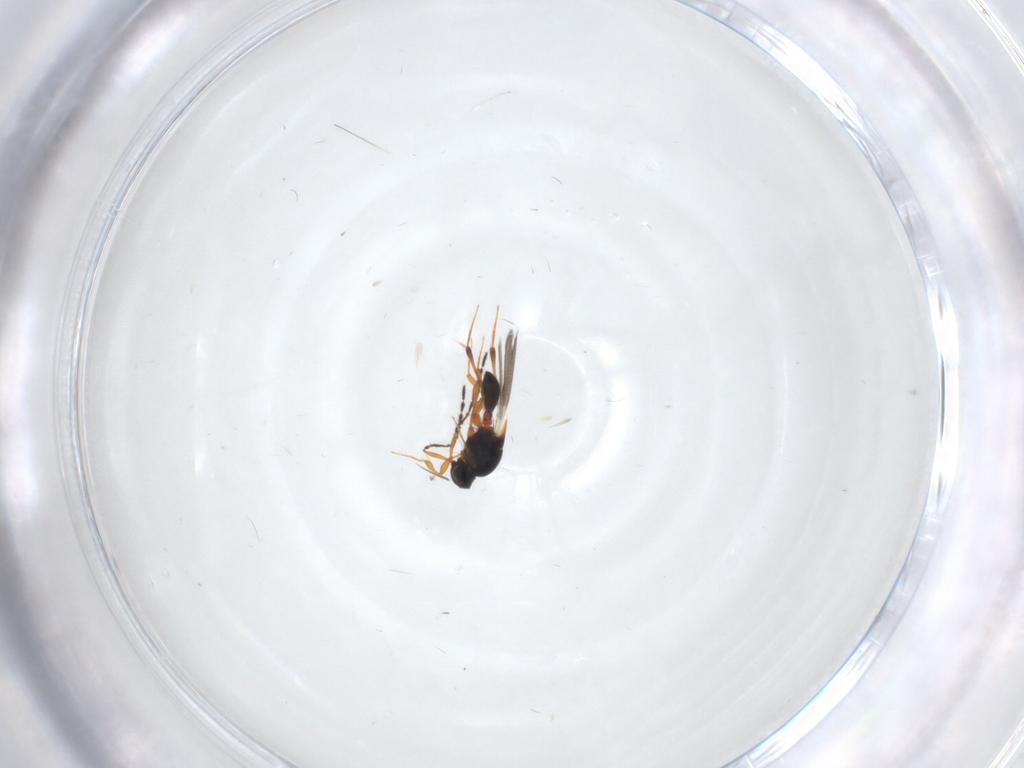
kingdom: Animalia
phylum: Arthropoda
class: Insecta
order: Hymenoptera
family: Platygastridae
